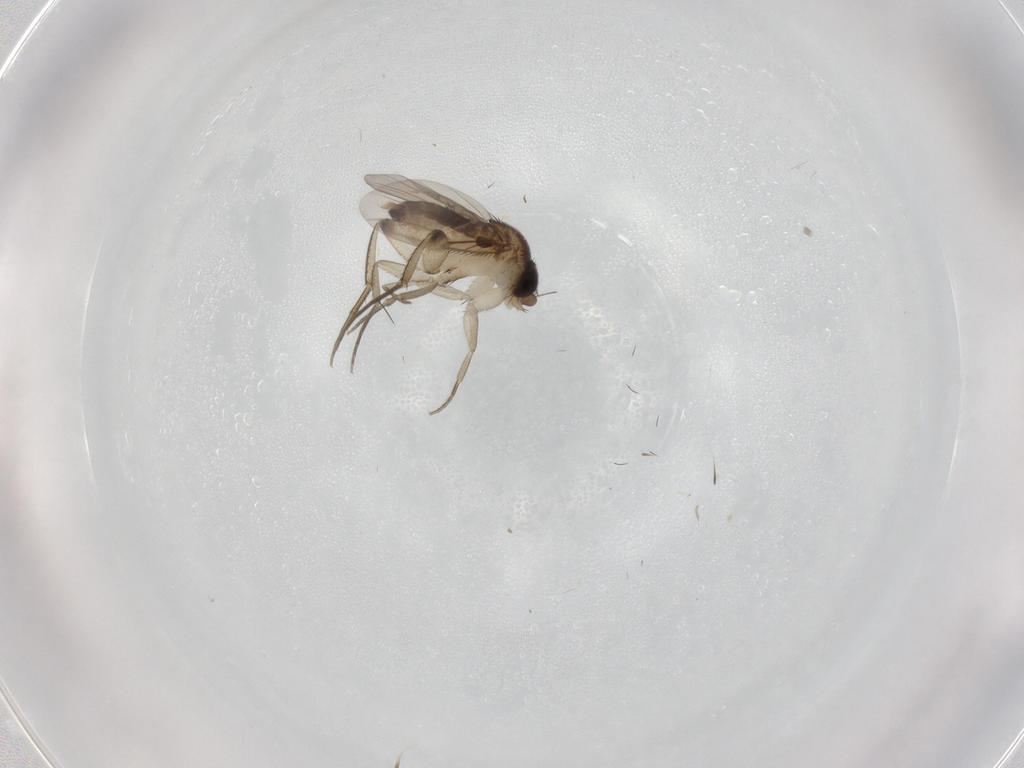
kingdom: Animalia
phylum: Arthropoda
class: Insecta
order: Diptera
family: Phoridae
